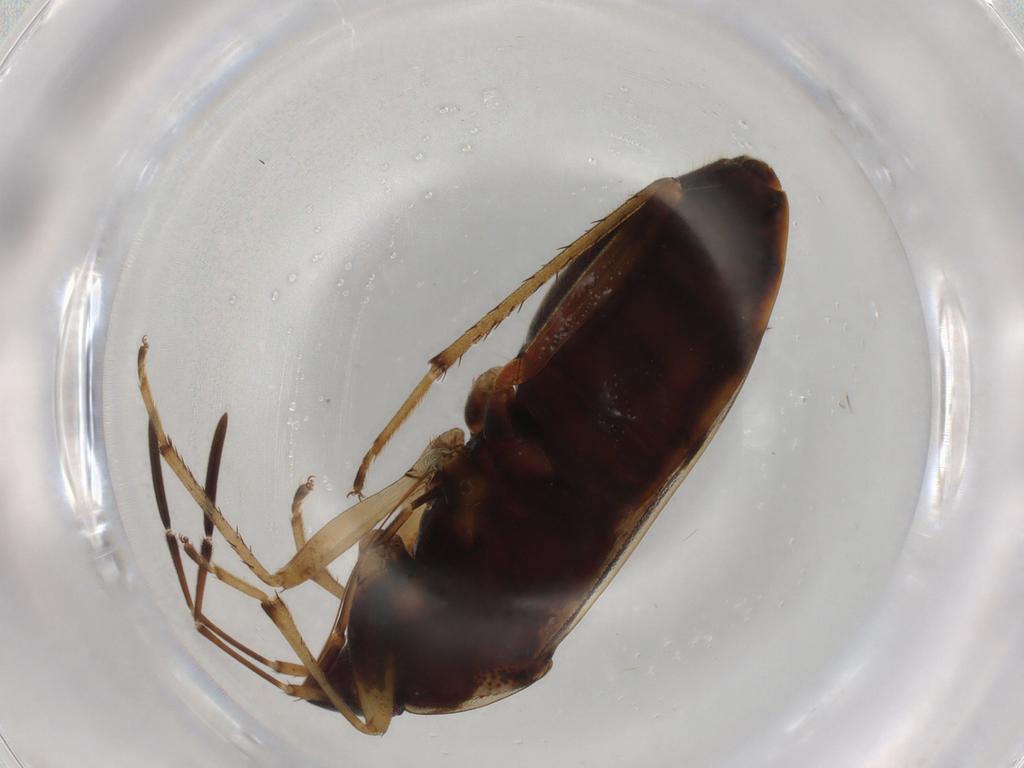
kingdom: Animalia
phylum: Arthropoda
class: Insecta
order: Hemiptera
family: Rhyparochromidae
